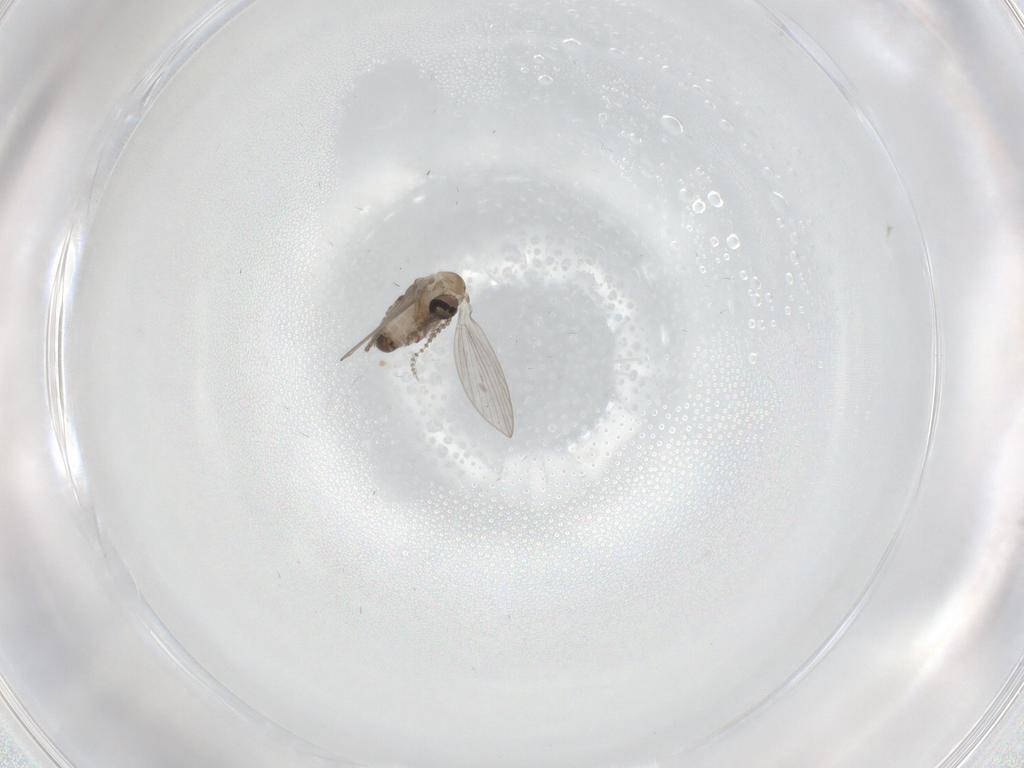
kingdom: Animalia
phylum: Arthropoda
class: Insecta
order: Diptera
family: Psychodidae
